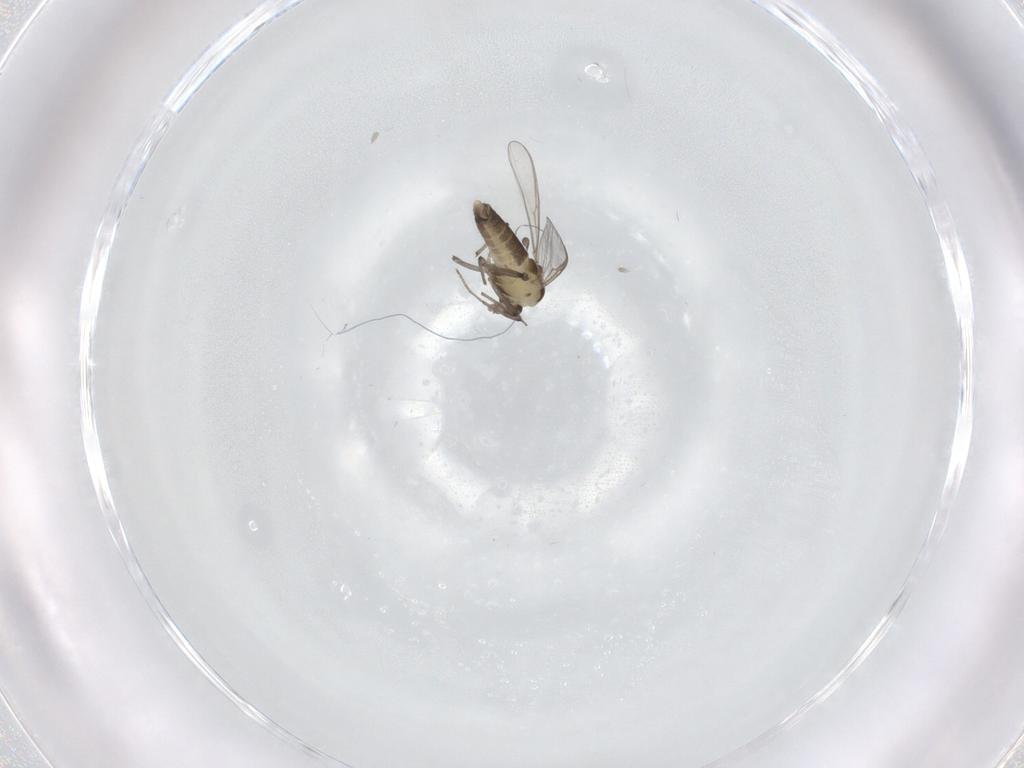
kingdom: Animalia
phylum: Arthropoda
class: Insecta
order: Diptera
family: Chironomidae
